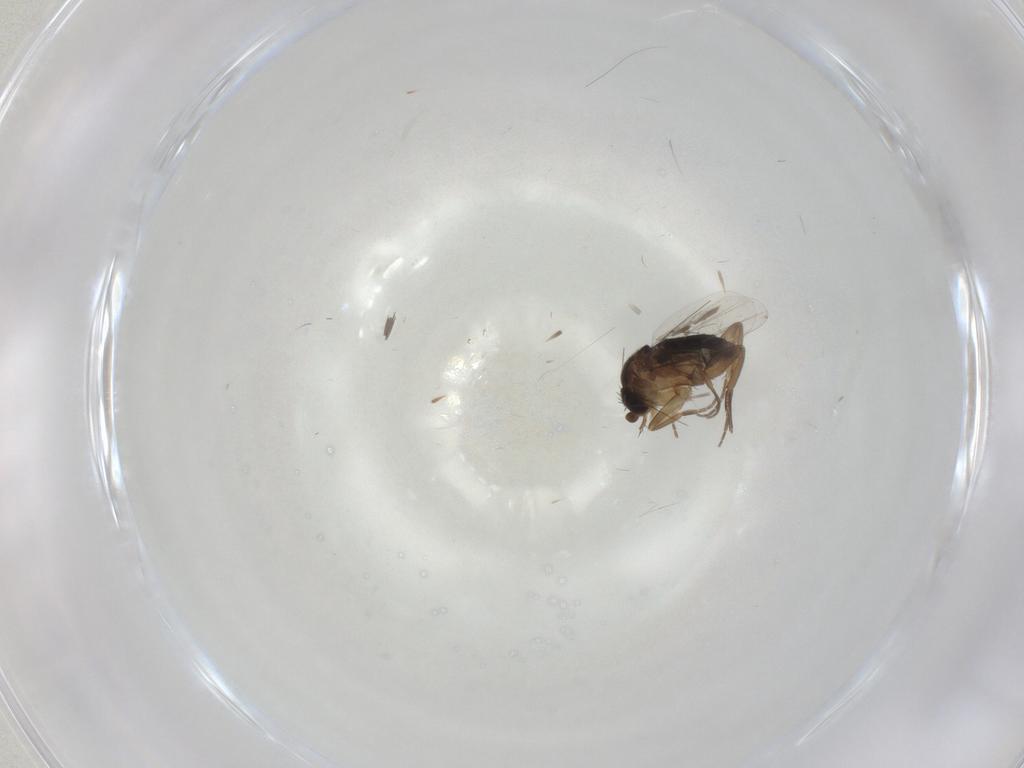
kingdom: Animalia
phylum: Arthropoda
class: Insecta
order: Diptera
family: Phoridae
